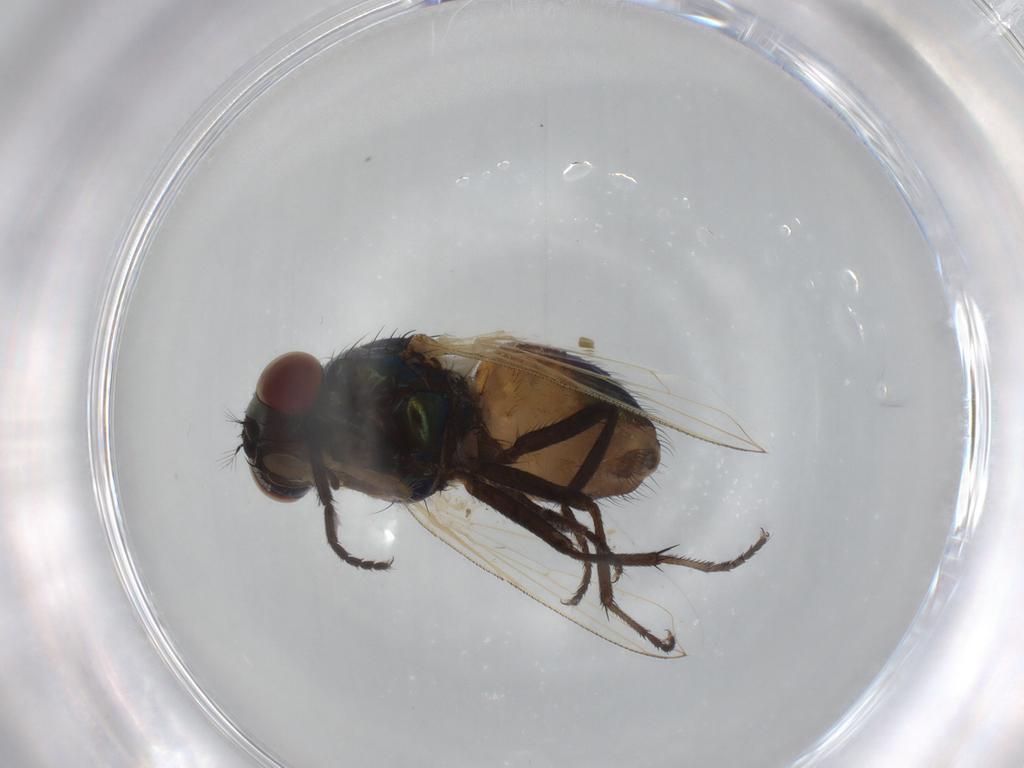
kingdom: Animalia
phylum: Arthropoda
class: Insecta
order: Diptera
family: Muscidae
